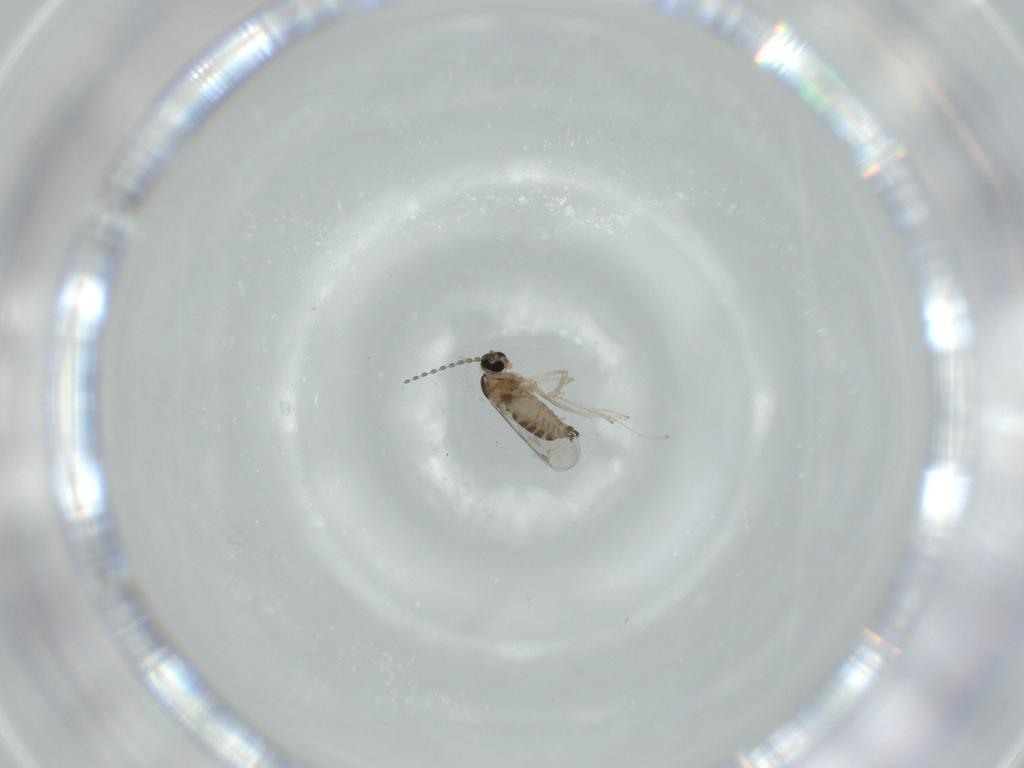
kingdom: Animalia
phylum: Arthropoda
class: Insecta
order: Diptera
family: Cecidomyiidae
